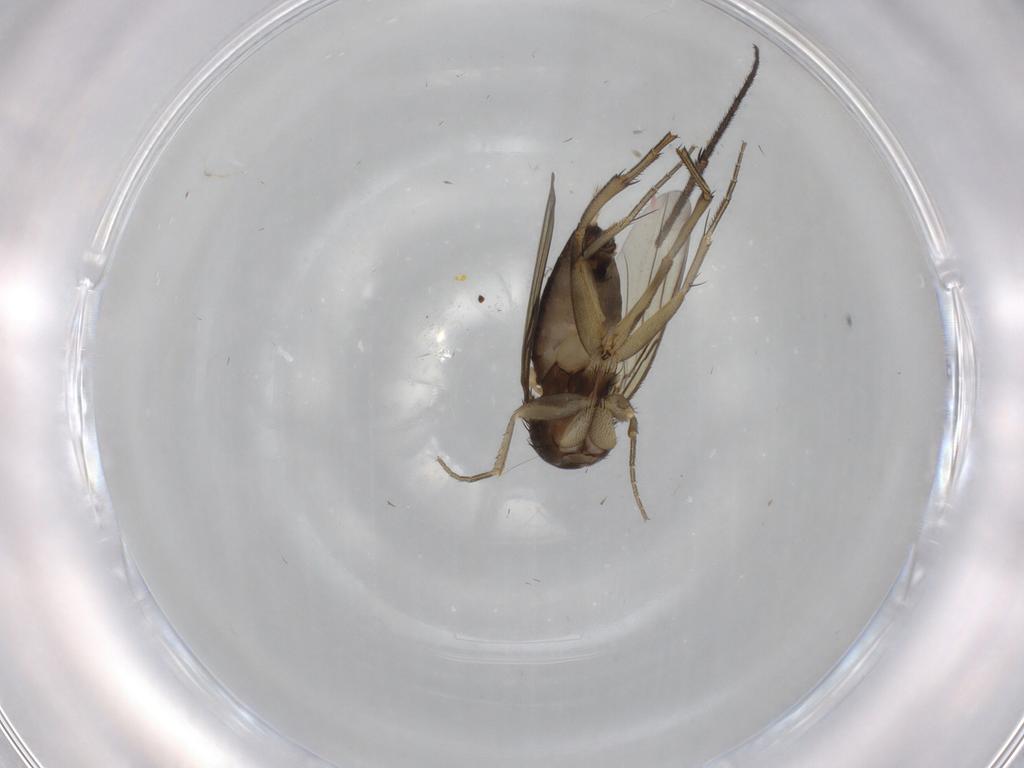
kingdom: Animalia
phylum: Arthropoda
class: Insecta
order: Diptera
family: Phoridae
